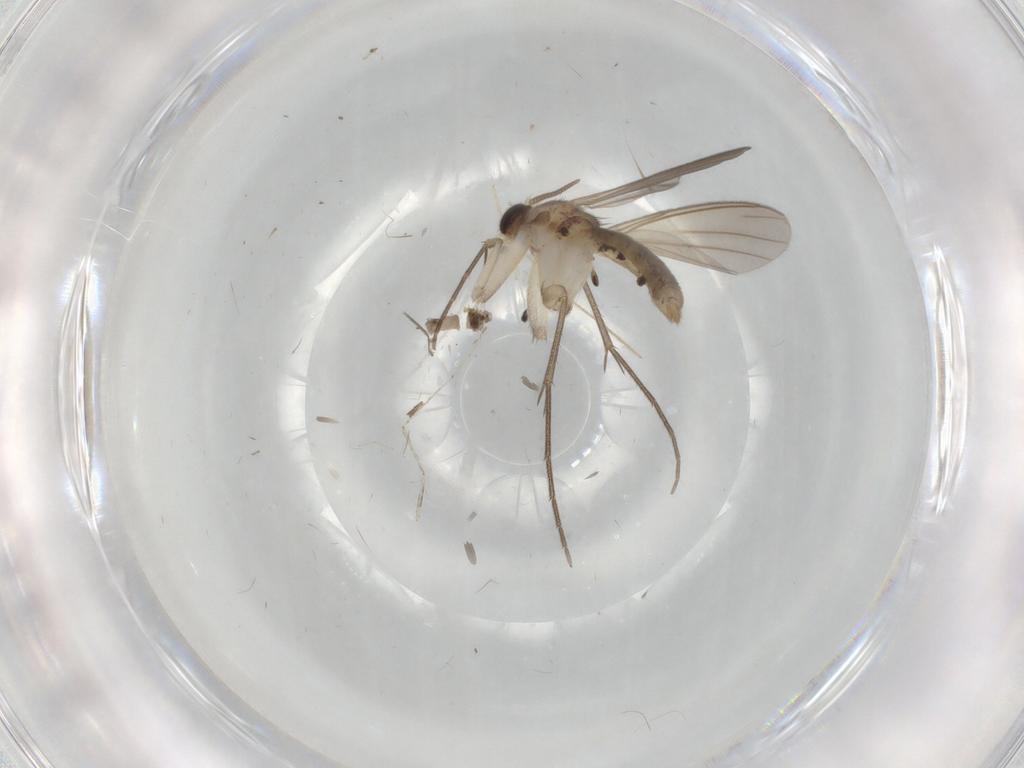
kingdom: Animalia
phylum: Arthropoda
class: Insecta
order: Diptera
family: Mycetophilidae
